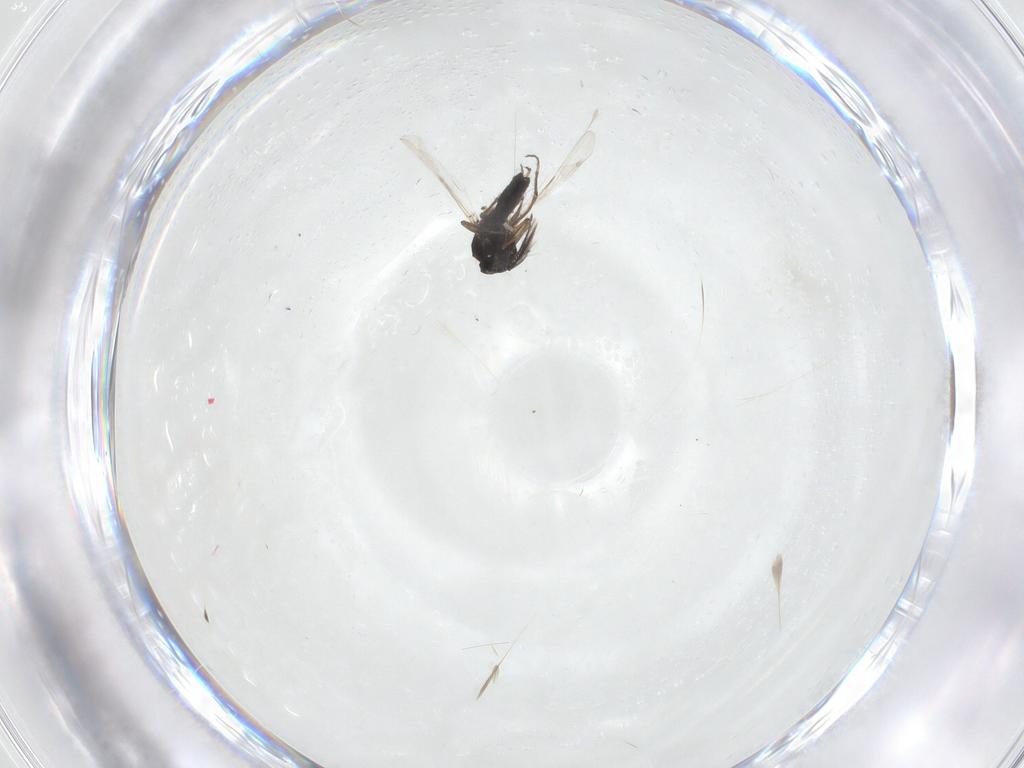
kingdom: Animalia
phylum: Arthropoda
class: Insecta
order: Diptera
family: Ceratopogonidae
